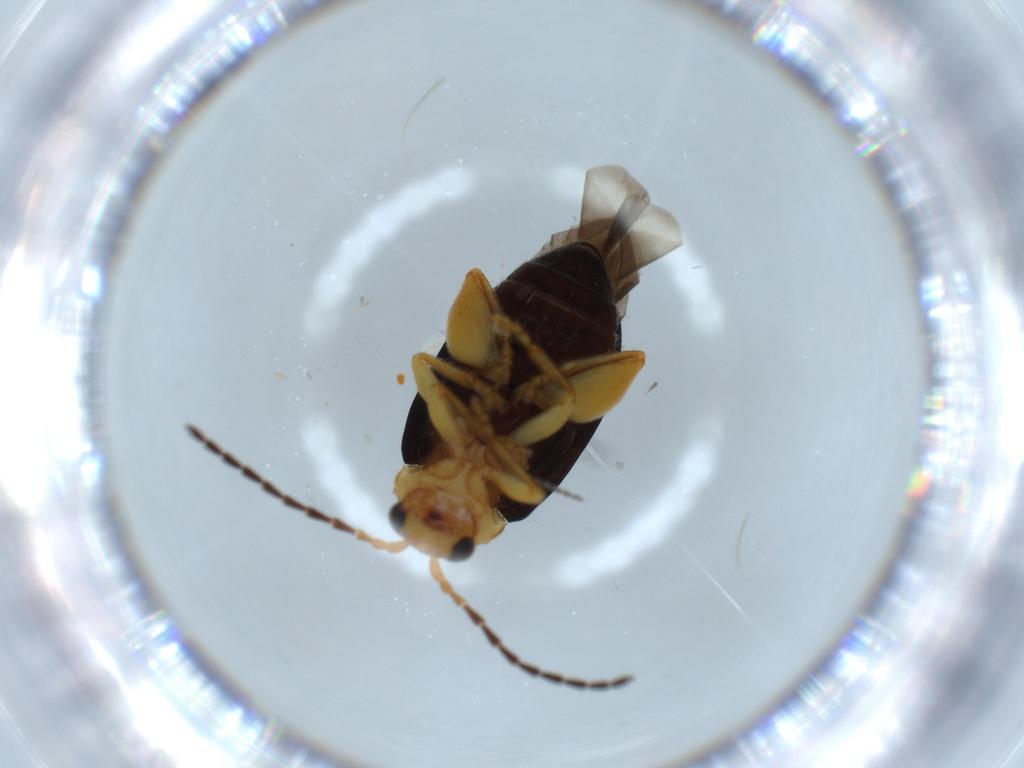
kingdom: Animalia
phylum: Arthropoda
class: Insecta
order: Coleoptera
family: Chrysomelidae
